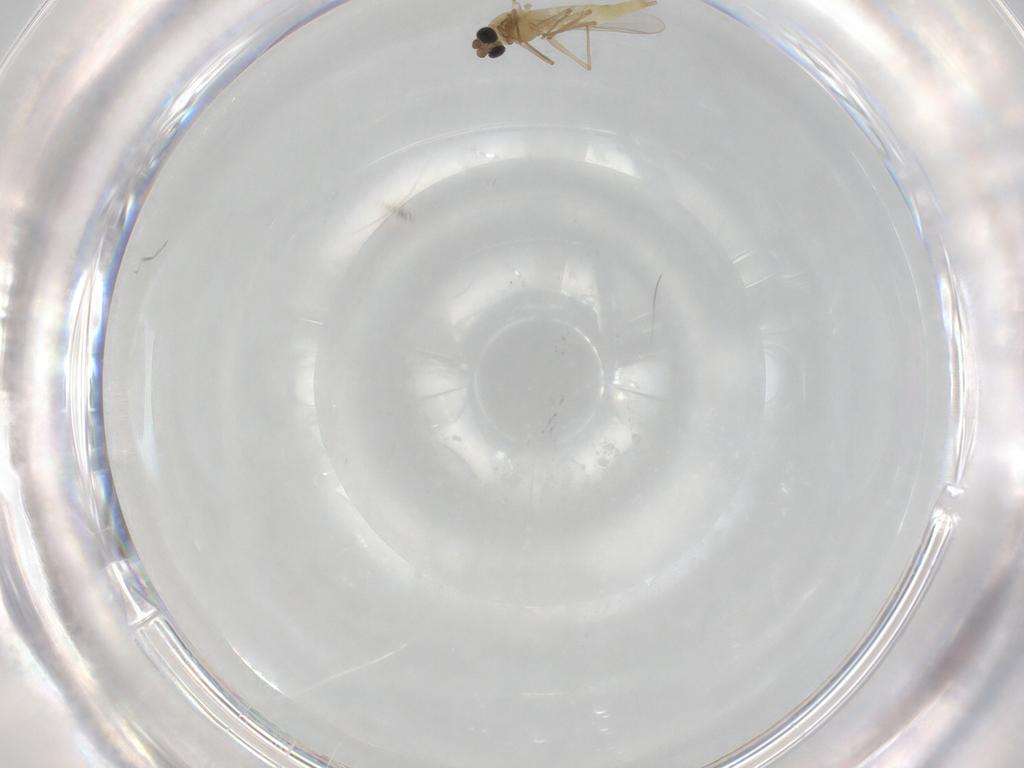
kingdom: Animalia
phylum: Arthropoda
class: Insecta
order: Diptera
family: Chironomidae
